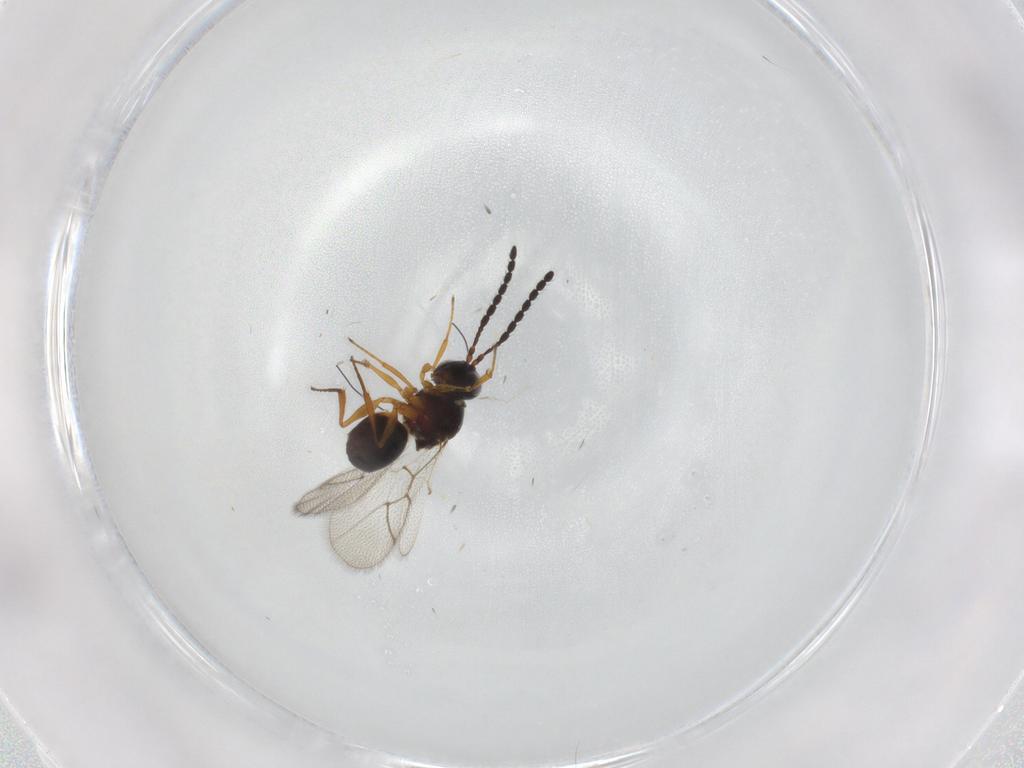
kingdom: Animalia
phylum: Arthropoda
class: Insecta
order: Hymenoptera
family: Figitidae
